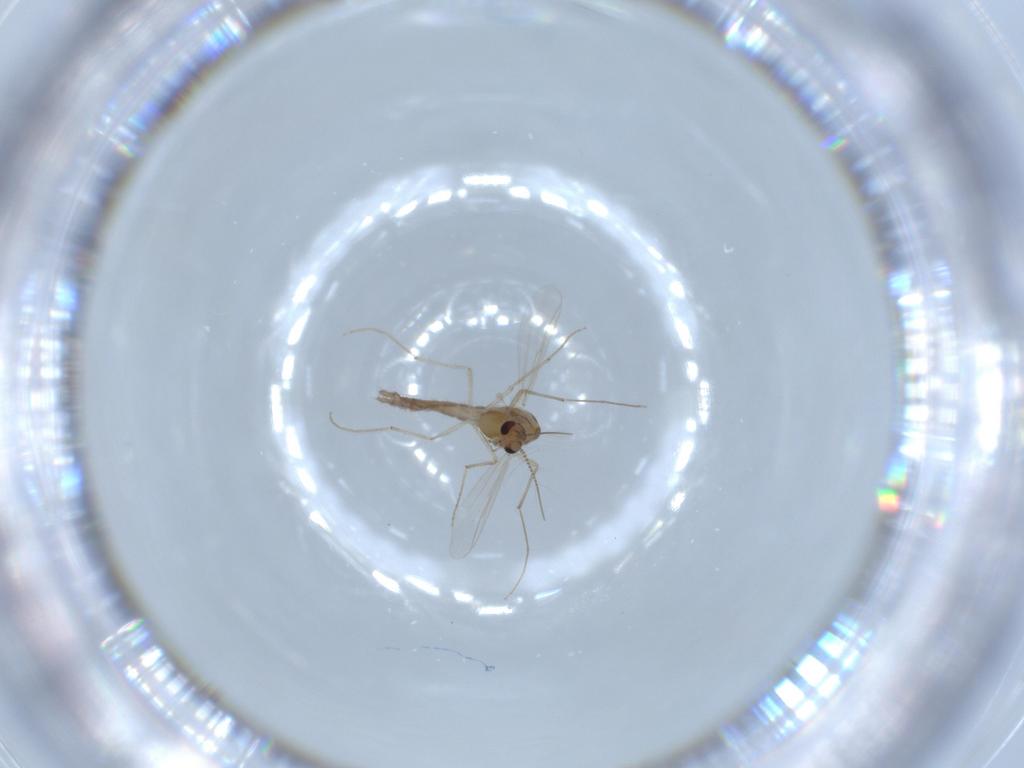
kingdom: Animalia
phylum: Arthropoda
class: Insecta
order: Diptera
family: Chironomidae
